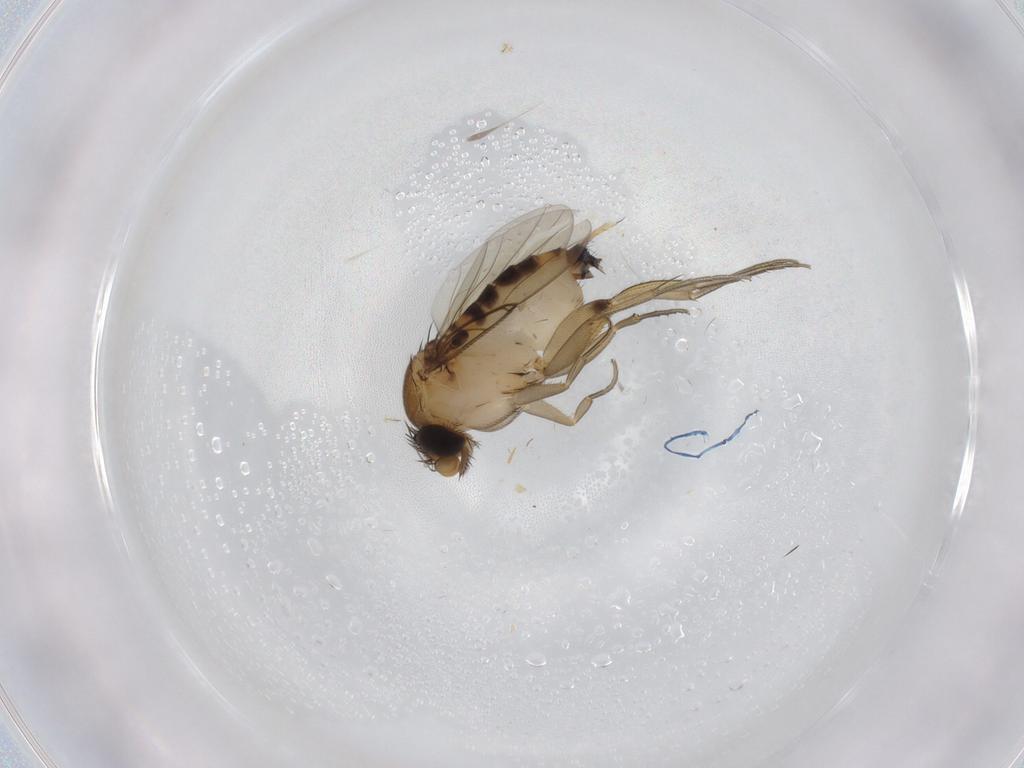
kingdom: Animalia
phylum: Arthropoda
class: Insecta
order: Diptera
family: Phoridae
